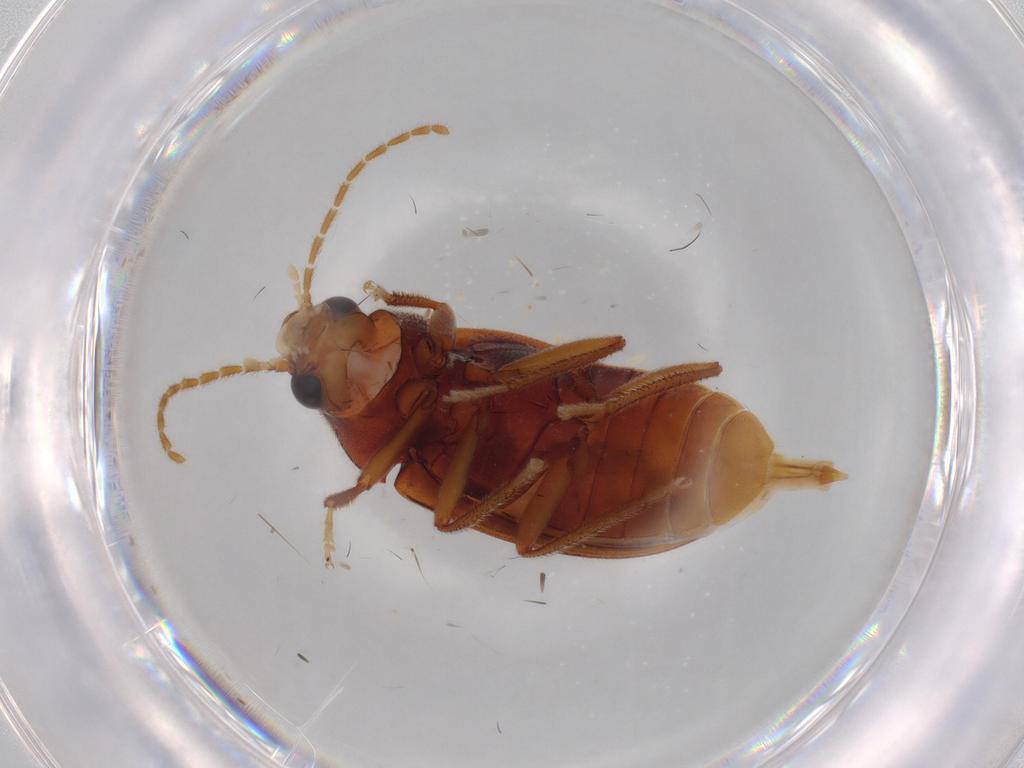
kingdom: Animalia
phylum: Arthropoda
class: Insecta
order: Coleoptera
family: Ptilodactylidae
